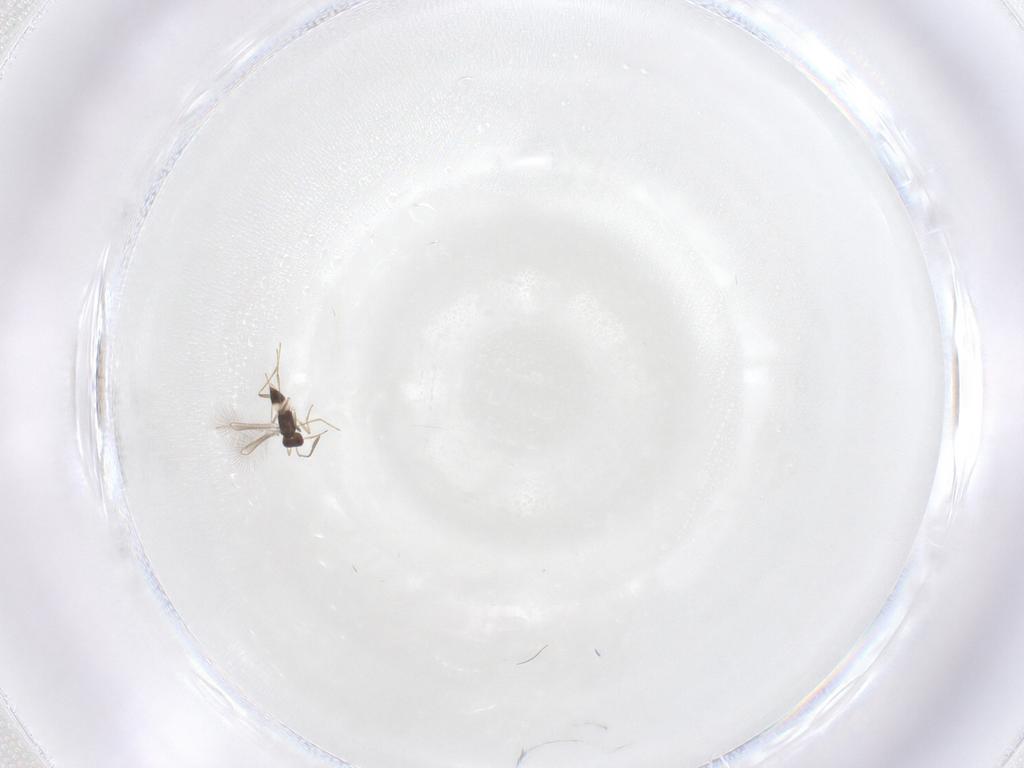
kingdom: Animalia
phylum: Arthropoda
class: Insecta
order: Hymenoptera
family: Mymaridae
